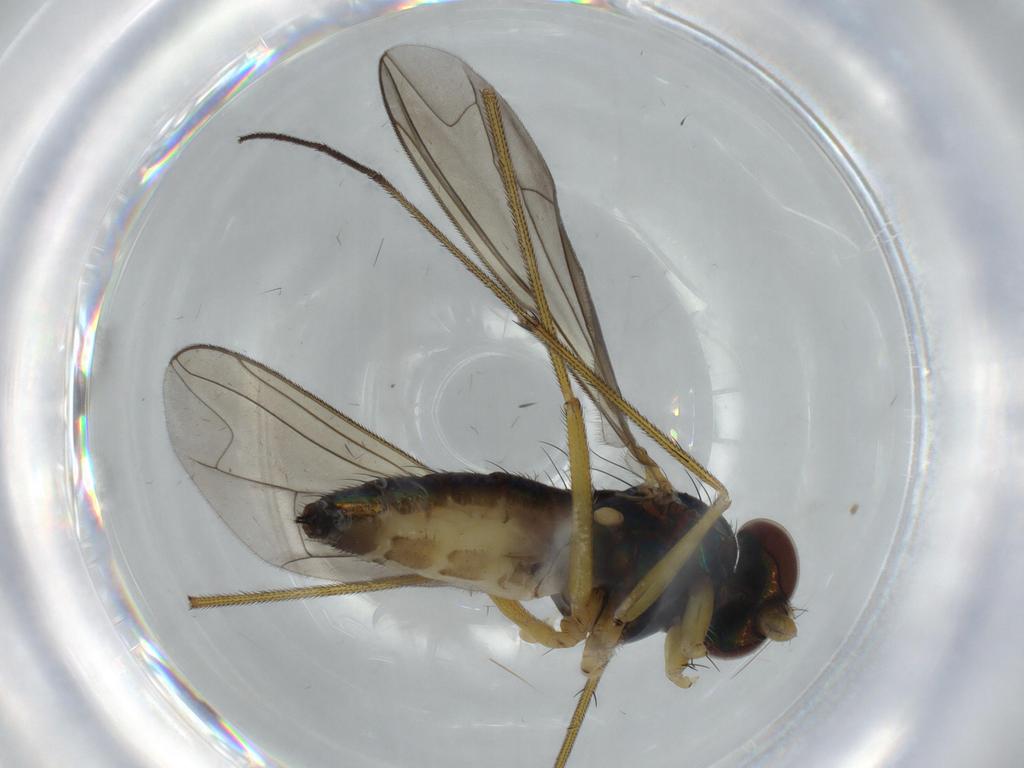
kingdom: Animalia
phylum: Arthropoda
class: Insecta
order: Diptera
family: Dolichopodidae
